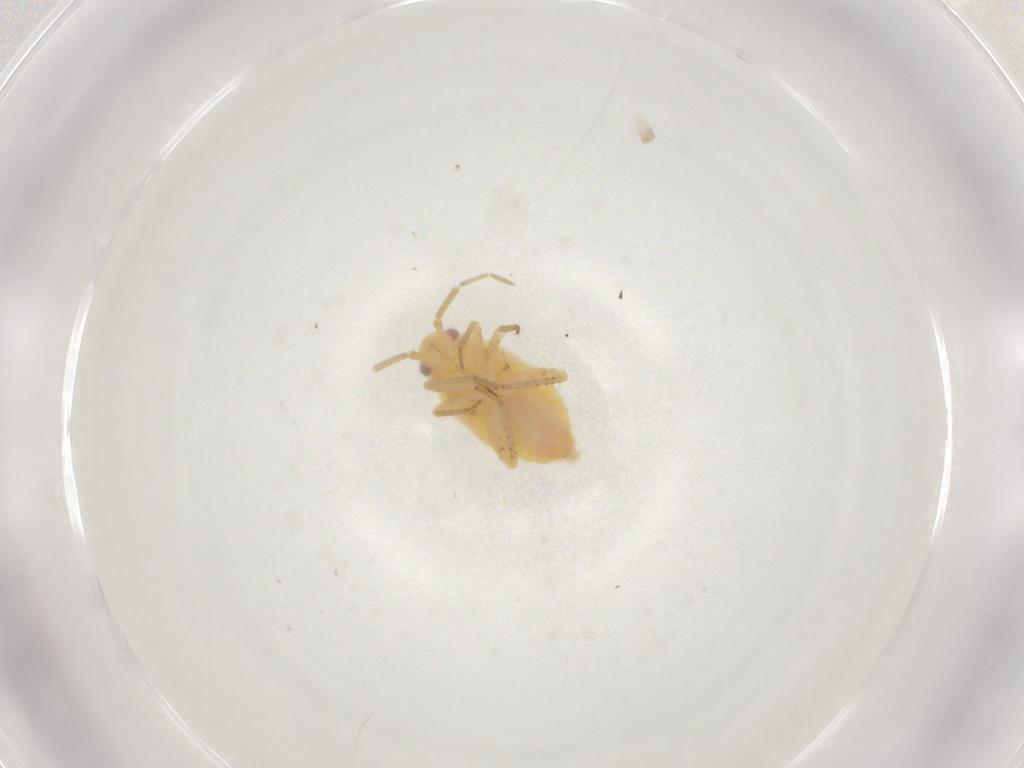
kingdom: Animalia
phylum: Arthropoda
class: Insecta
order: Hymenoptera
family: Formicidae
